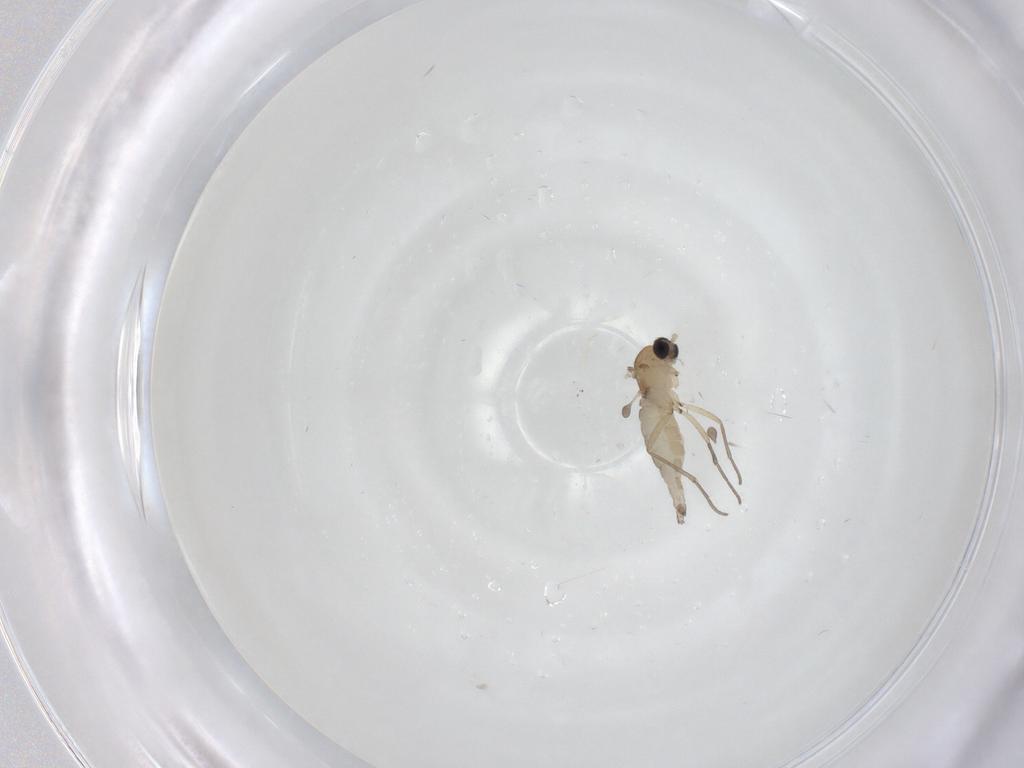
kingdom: Animalia
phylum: Arthropoda
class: Insecta
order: Diptera
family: Sciaridae
